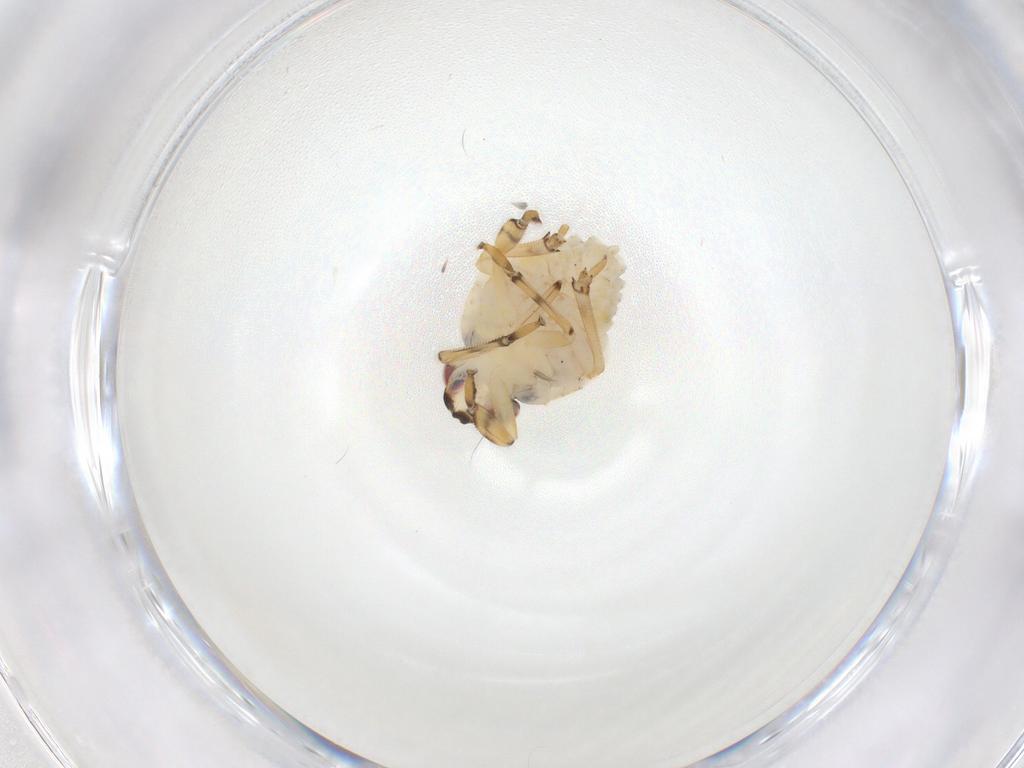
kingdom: Animalia
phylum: Arthropoda
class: Insecta
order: Hemiptera
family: Issidae
